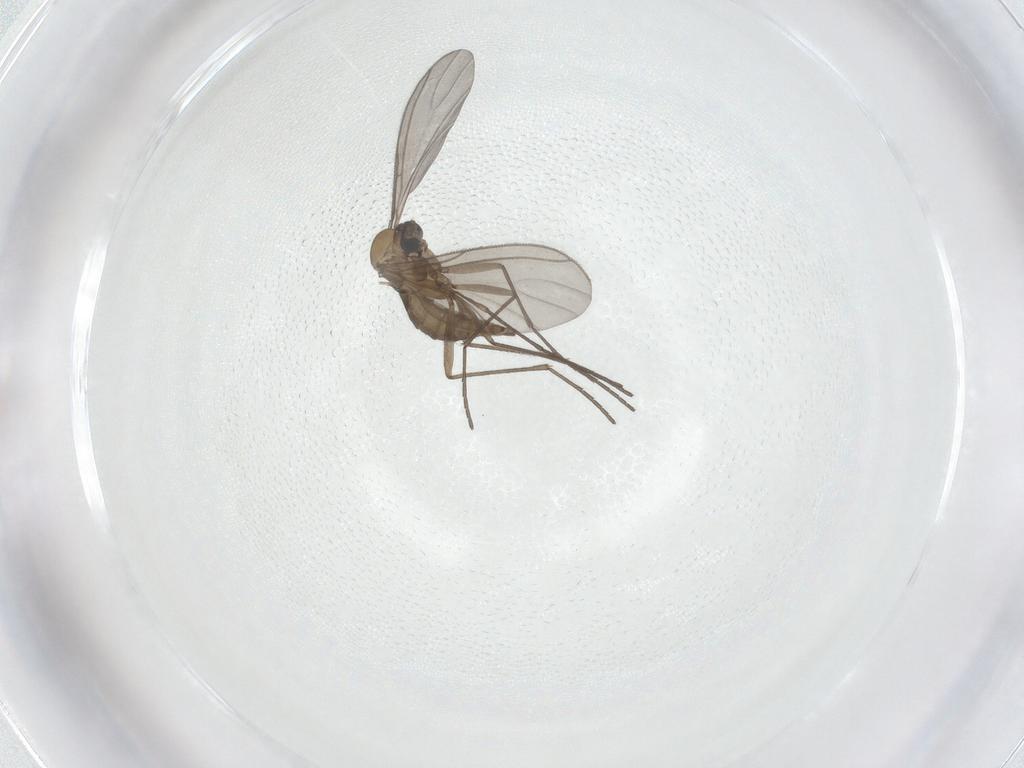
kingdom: Animalia
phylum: Arthropoda
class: Insecta
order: Diptera
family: Sciaridae
